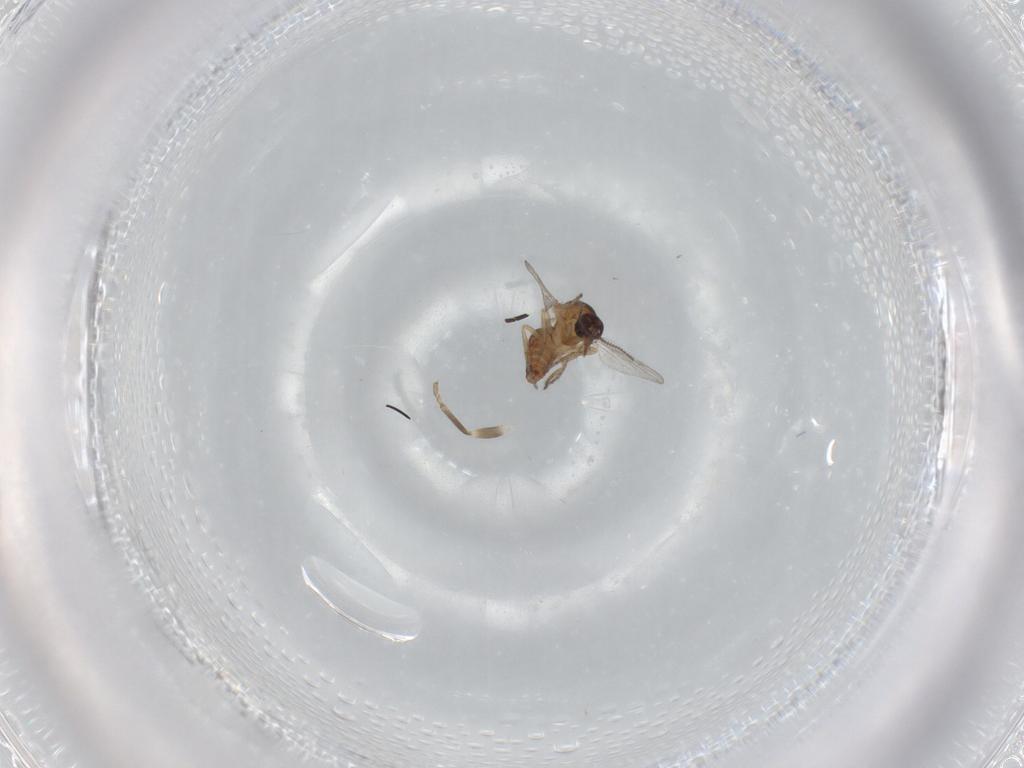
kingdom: Animalia
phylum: Arthropoda
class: Insecta
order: Diptera
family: Ceratopogonidae
